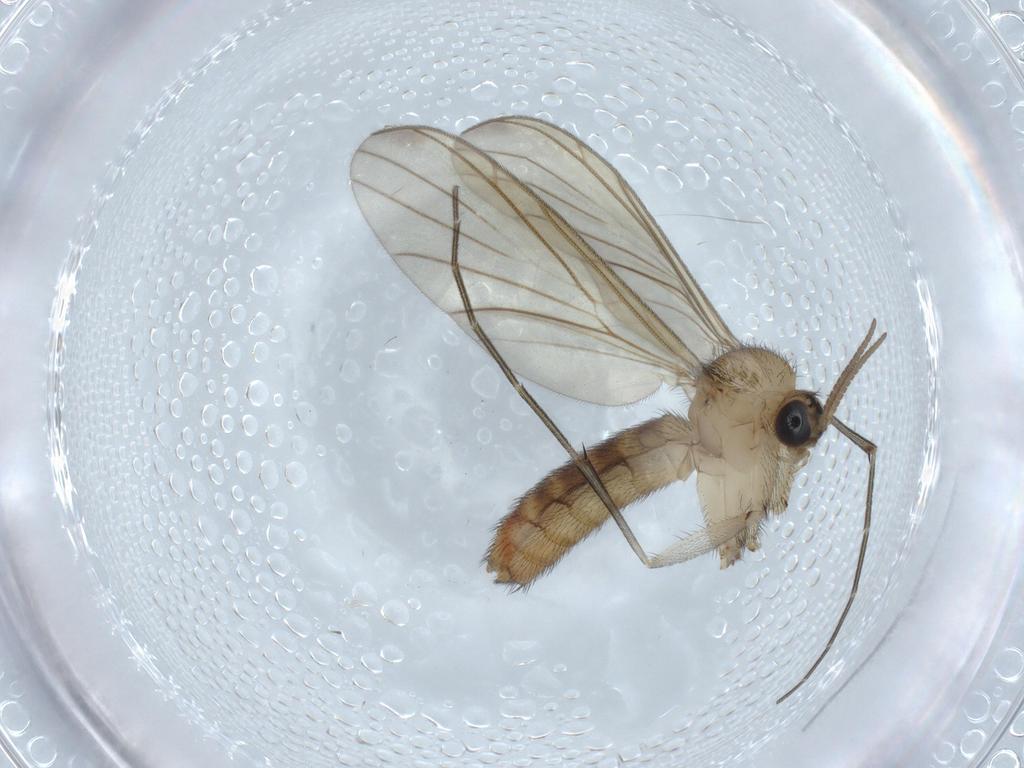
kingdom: Animalia
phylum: Arthropoda
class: Insecta
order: Diptera
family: Keroplatidae
